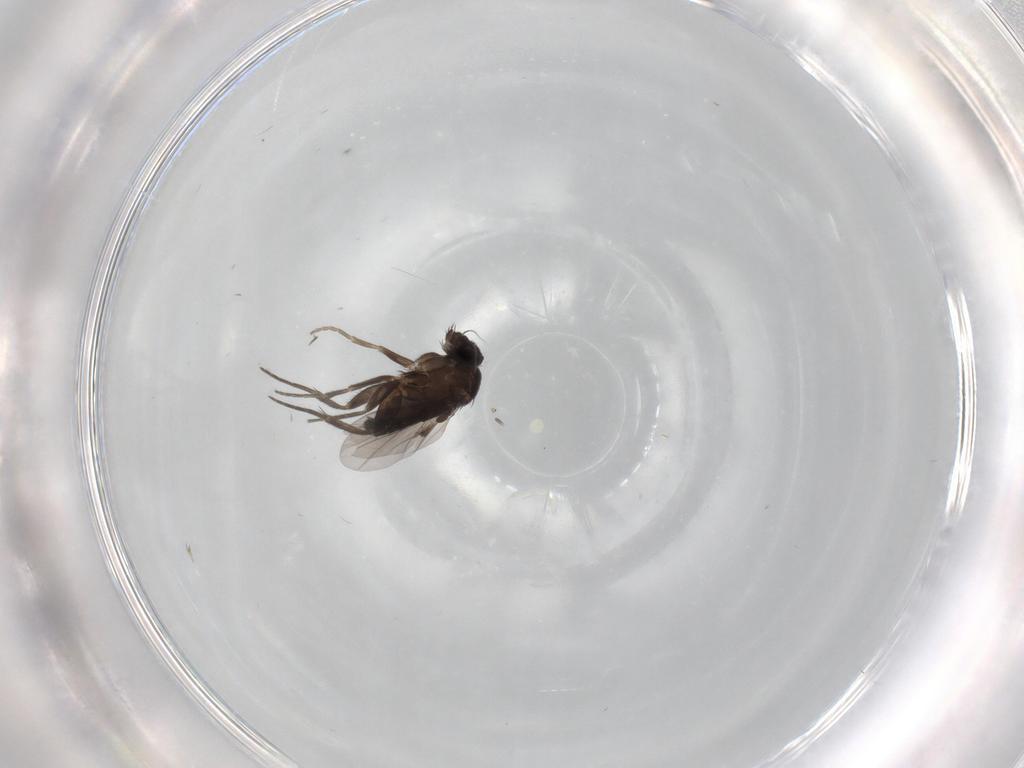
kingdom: Animalia
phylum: Arthropoda
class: Insecta
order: Diptera
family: Phoridae
